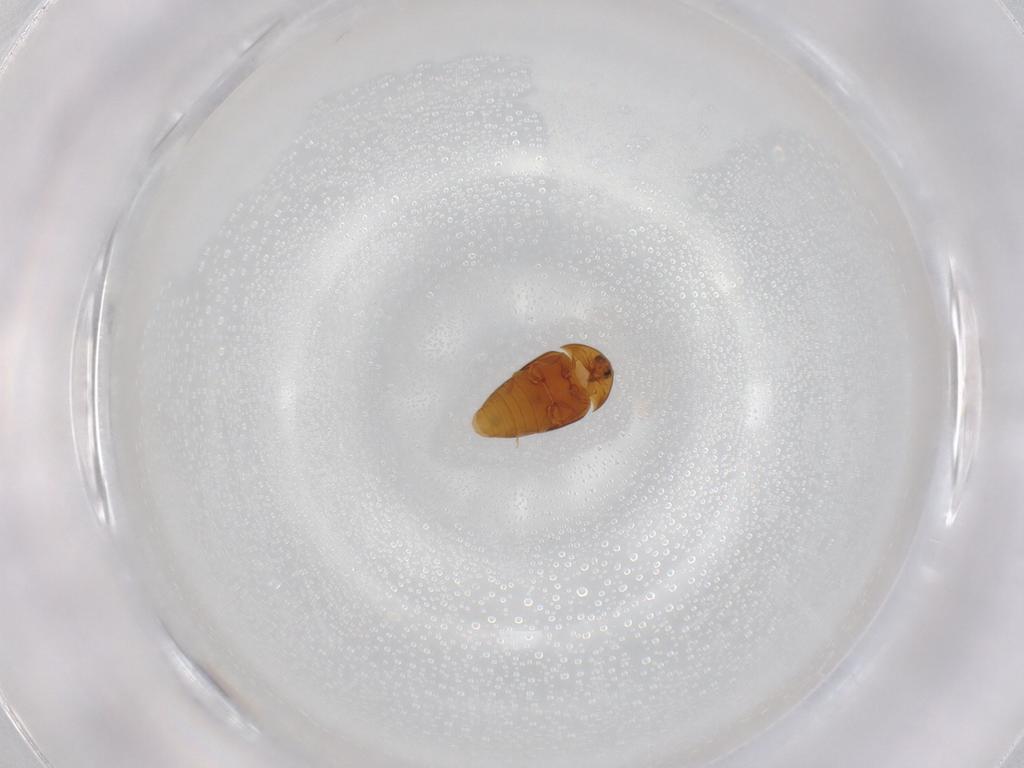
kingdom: Animalia
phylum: Arthropoda
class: Insecta
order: Coleoptera
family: Corylophidae
